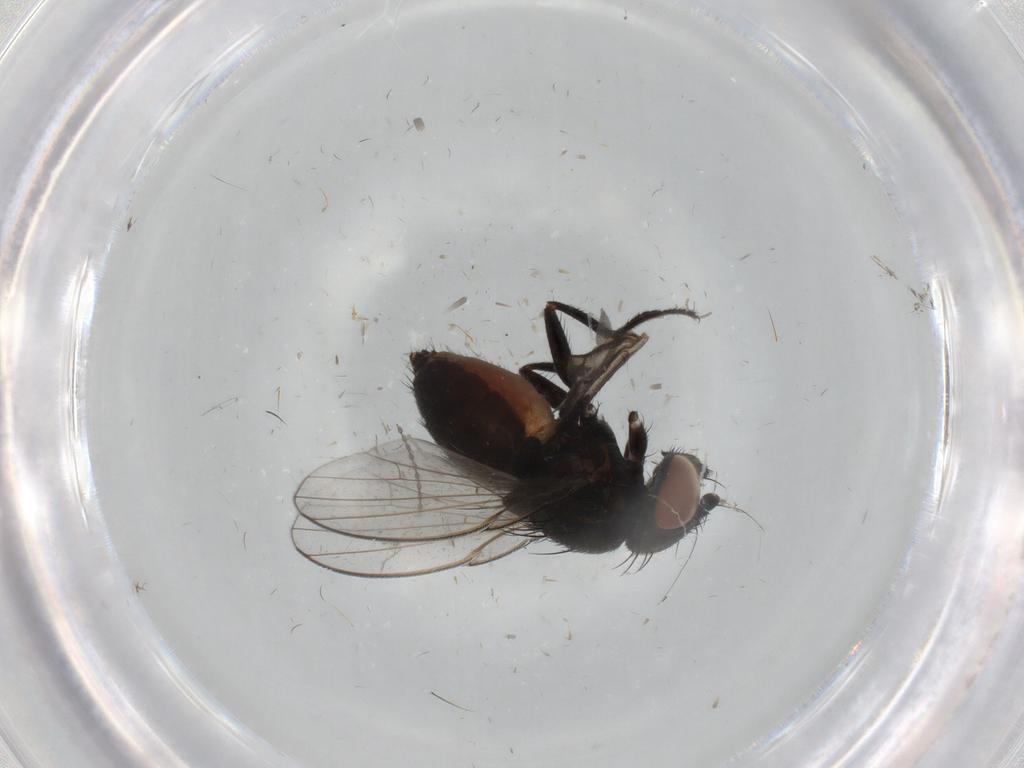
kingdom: Animalia
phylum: Arthropoda
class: Insecta
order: Diptera
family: Milichiidae
